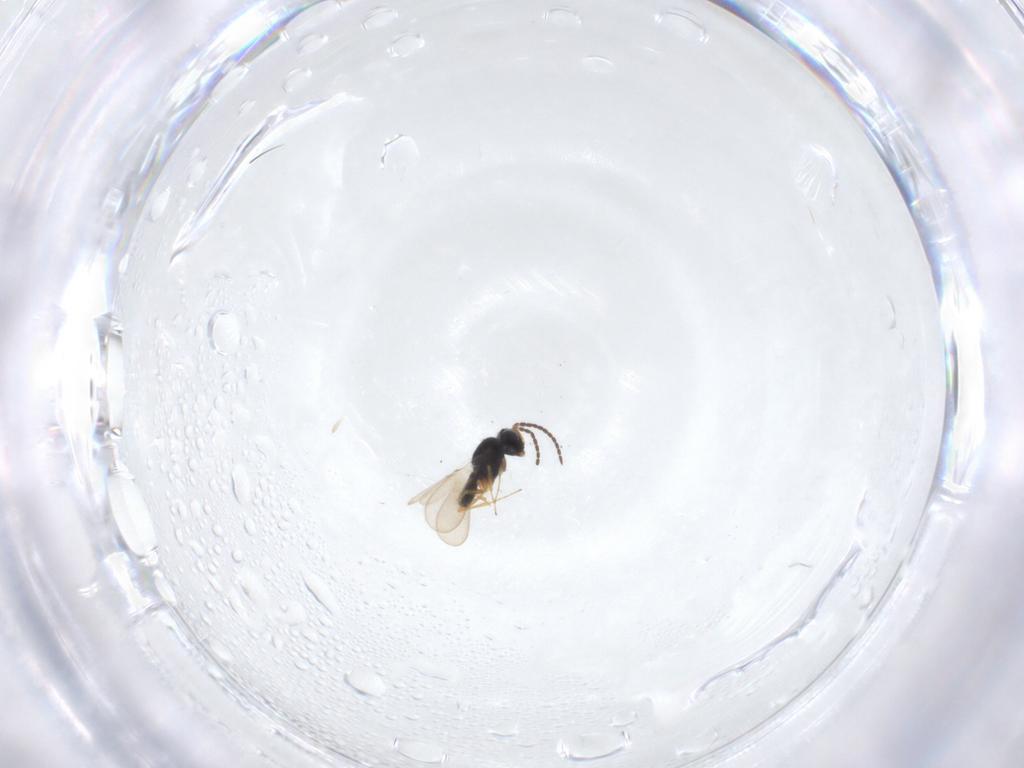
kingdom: Animalia
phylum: Arthropoda
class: Insecta
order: Hymenoptera
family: Scelionidae
